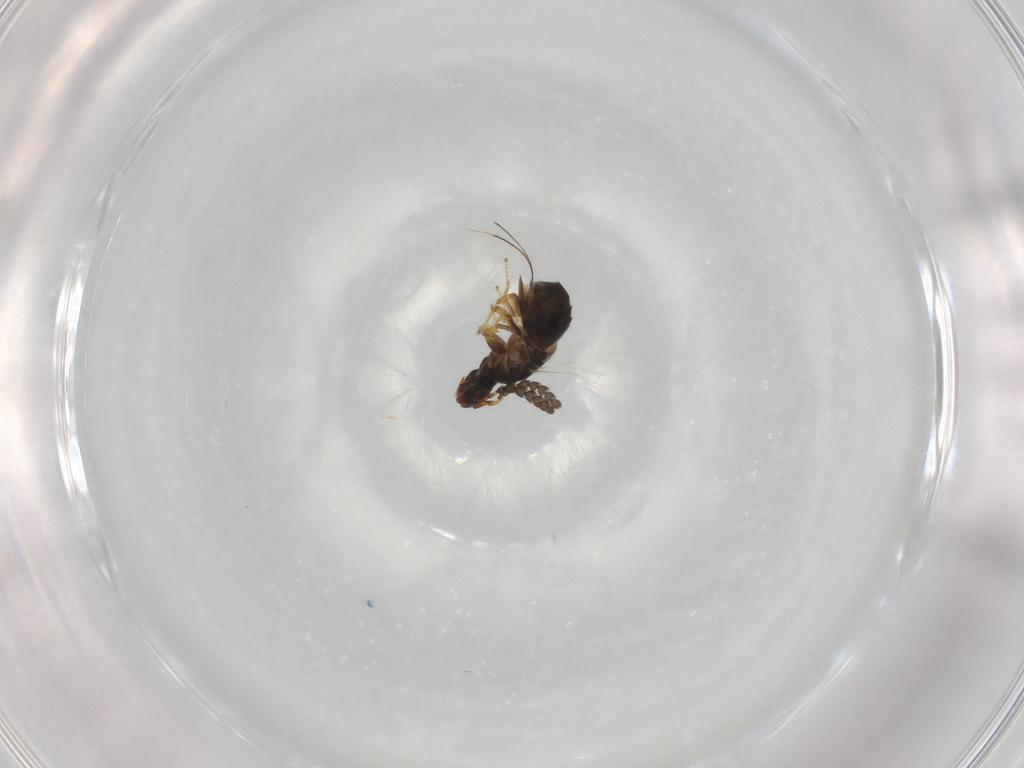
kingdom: Animalia
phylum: Arthropoda
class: Insecta
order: Hymenoptera
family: Agaonidae
